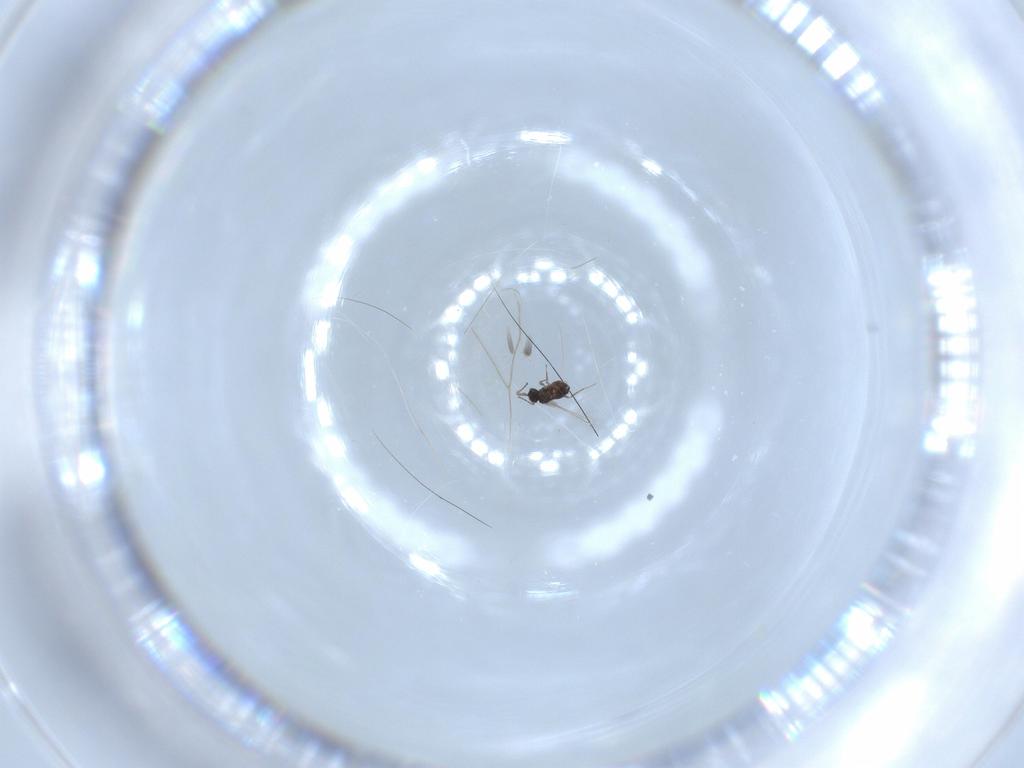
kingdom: Animalia
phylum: Arthropoda
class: Insecta
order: Hymenoptera
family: Mymaridae
